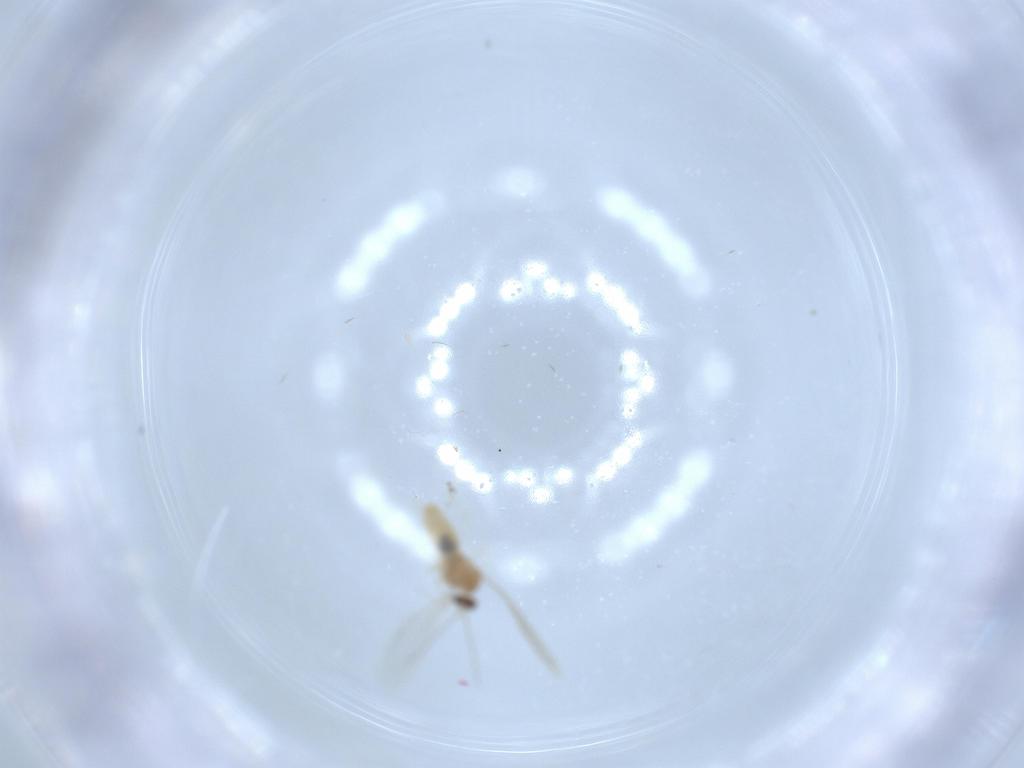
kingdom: Animalia
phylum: Arthropoda
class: Insecta
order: Diptera
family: Cecidomyiidae
